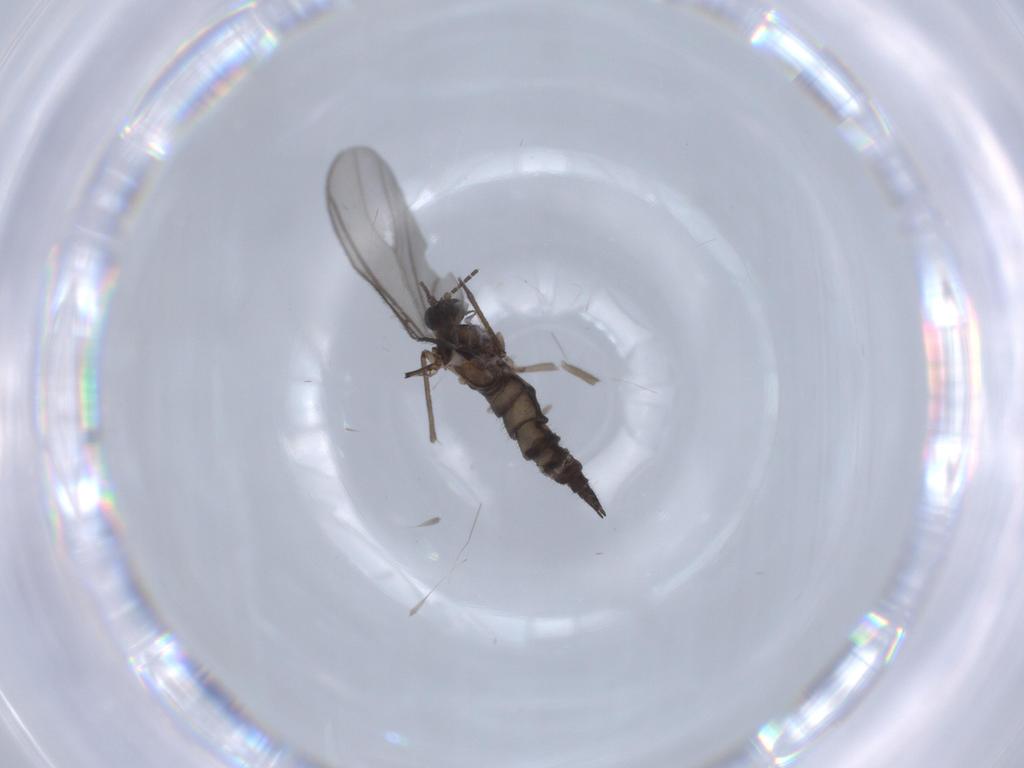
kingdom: Animalia
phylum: Arthropoda
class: Insecta
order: Diptera
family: Sciaridae
